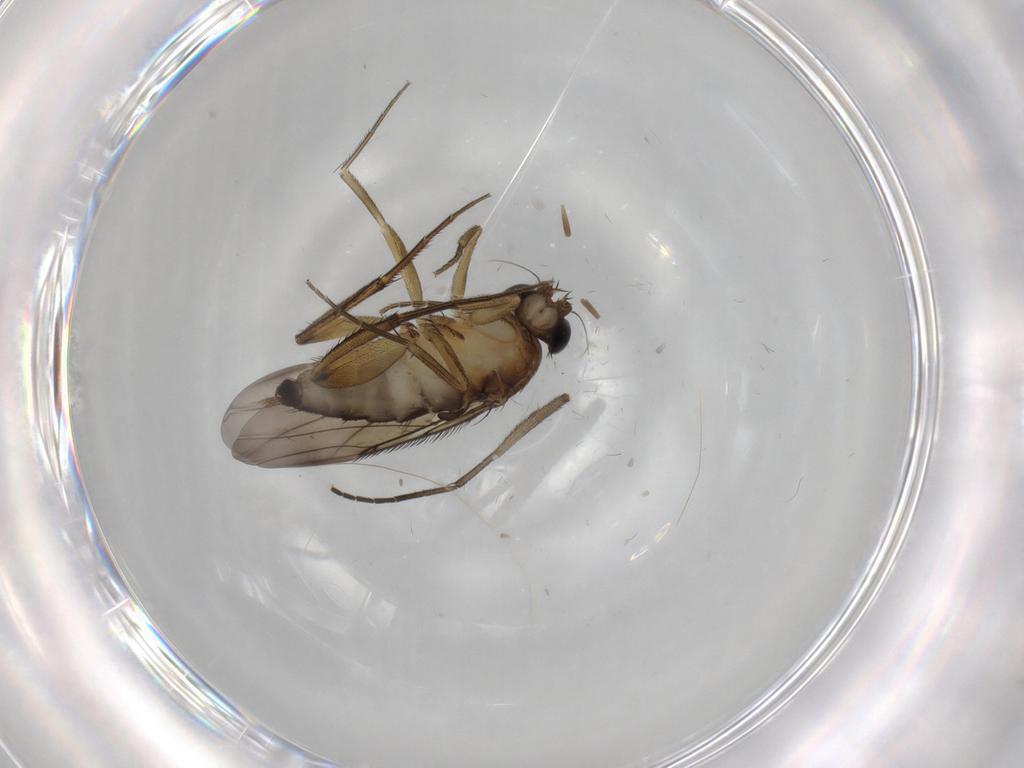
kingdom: Animalia
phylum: Arthropoda
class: Insecta
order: Diptera
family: Phoridae
